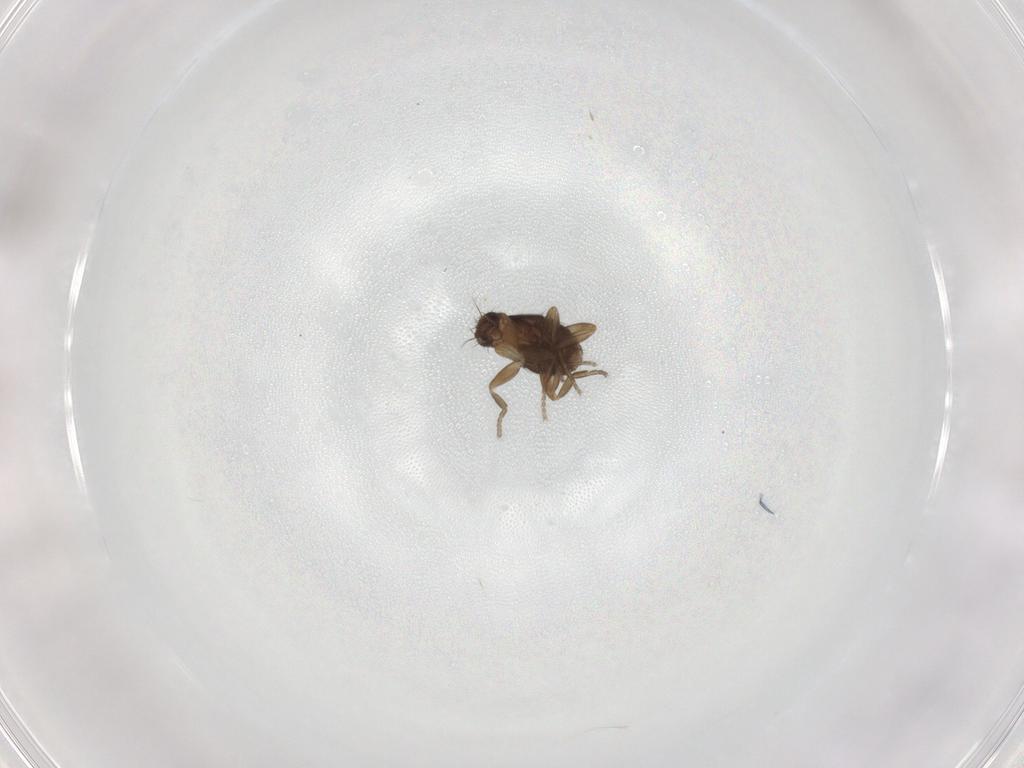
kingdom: Animalia
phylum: Arthropoda
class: Insecta
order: Diptera
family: Phoridae
